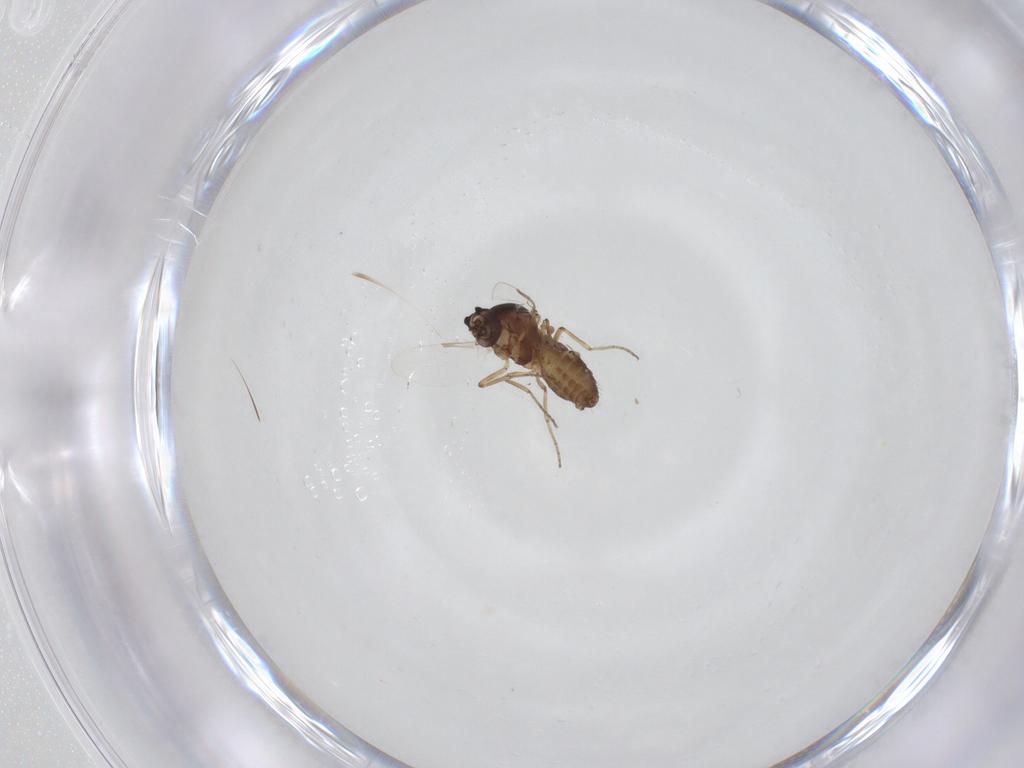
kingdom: Animalia
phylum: Arthropoda
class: Insecta
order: Diptera
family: Ceratopogonidae
